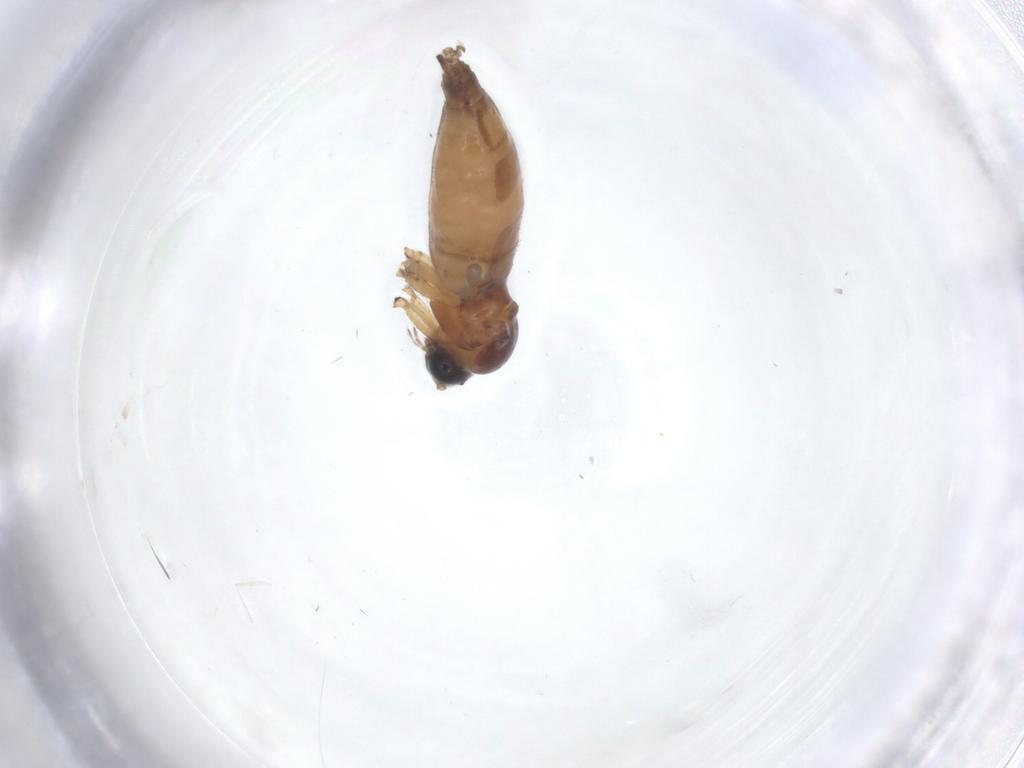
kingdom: Animalia
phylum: Arthropoda
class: Insecta
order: Diptera
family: Sciaridae
